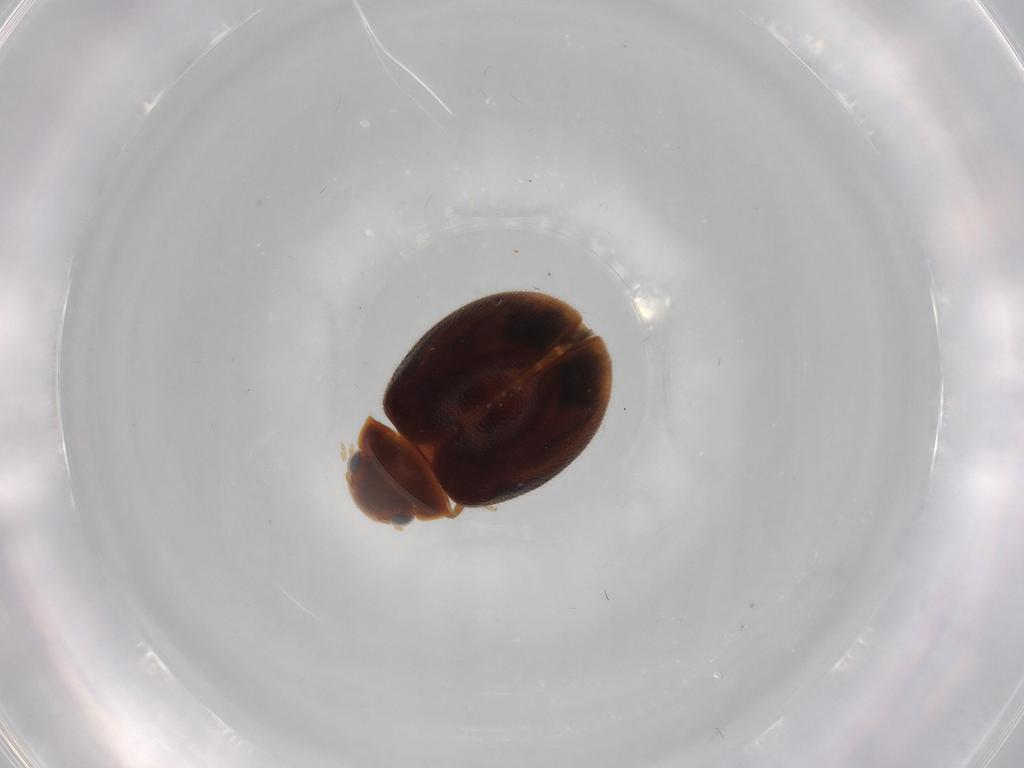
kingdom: Animalia
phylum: Arthropoda
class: Insecta
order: Coleoptera
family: Scirtidae
